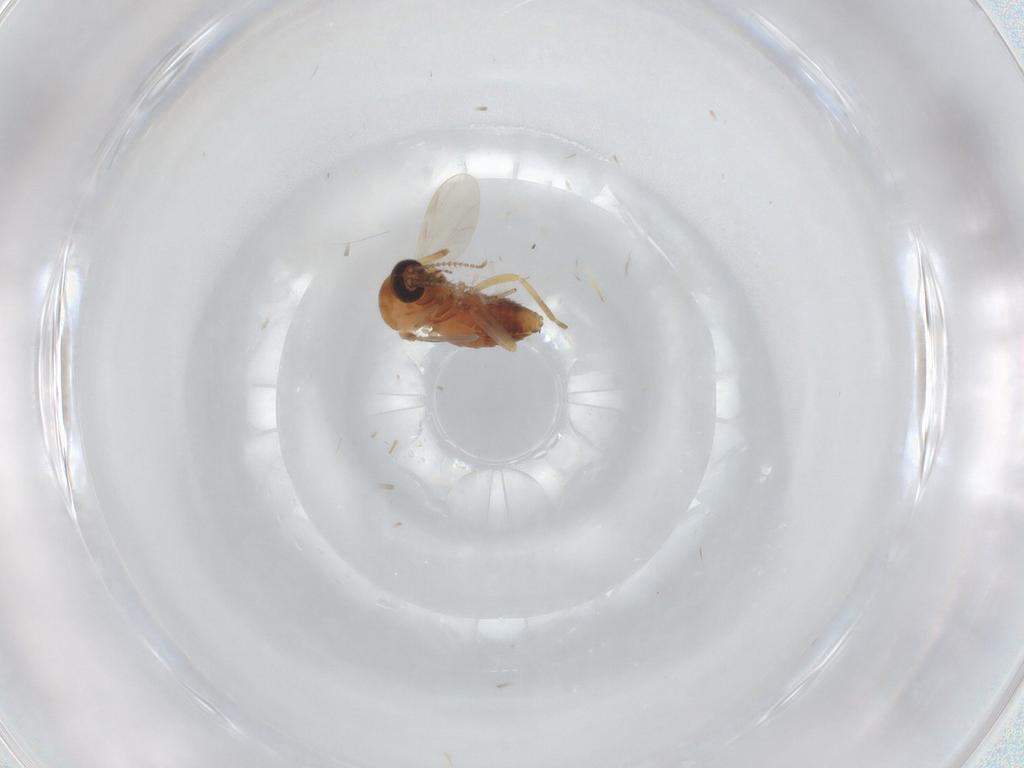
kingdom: Animalia
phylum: Arthropoda
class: Insecta
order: Diptera
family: Ceratopogonidae
